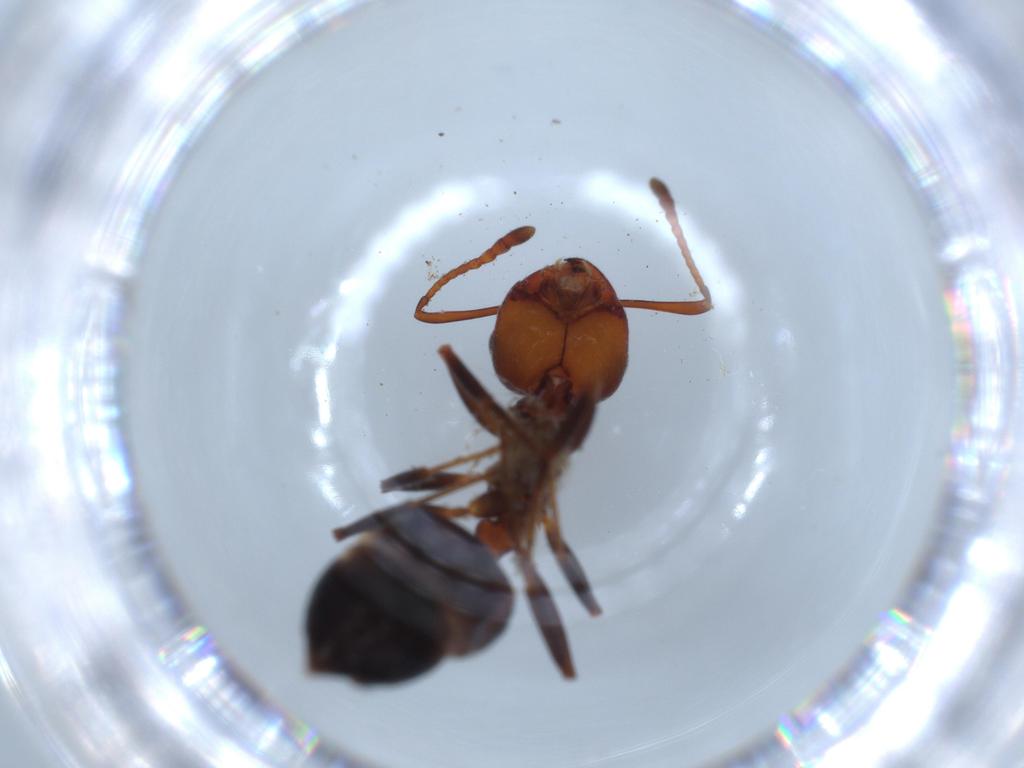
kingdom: Animalia
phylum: Arthropoda
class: Insecta
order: Hymenoptera
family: Formicidae
